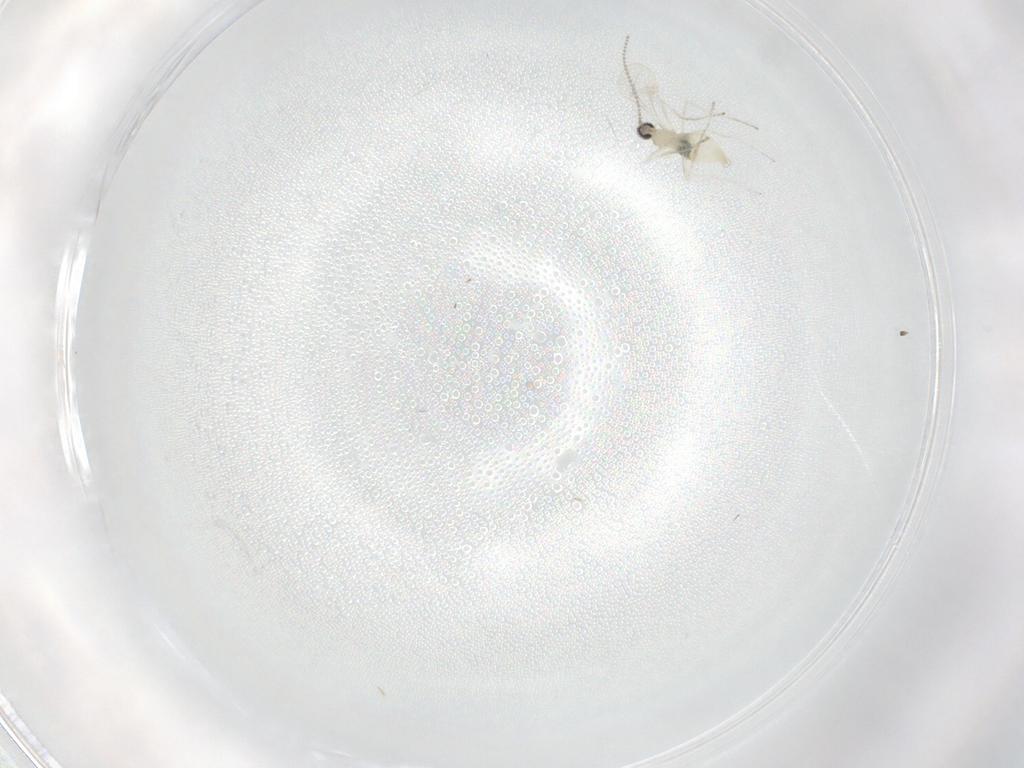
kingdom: Animalia
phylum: Arthropoda
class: Insecta
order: Diptera
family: Cecidomyiidae
